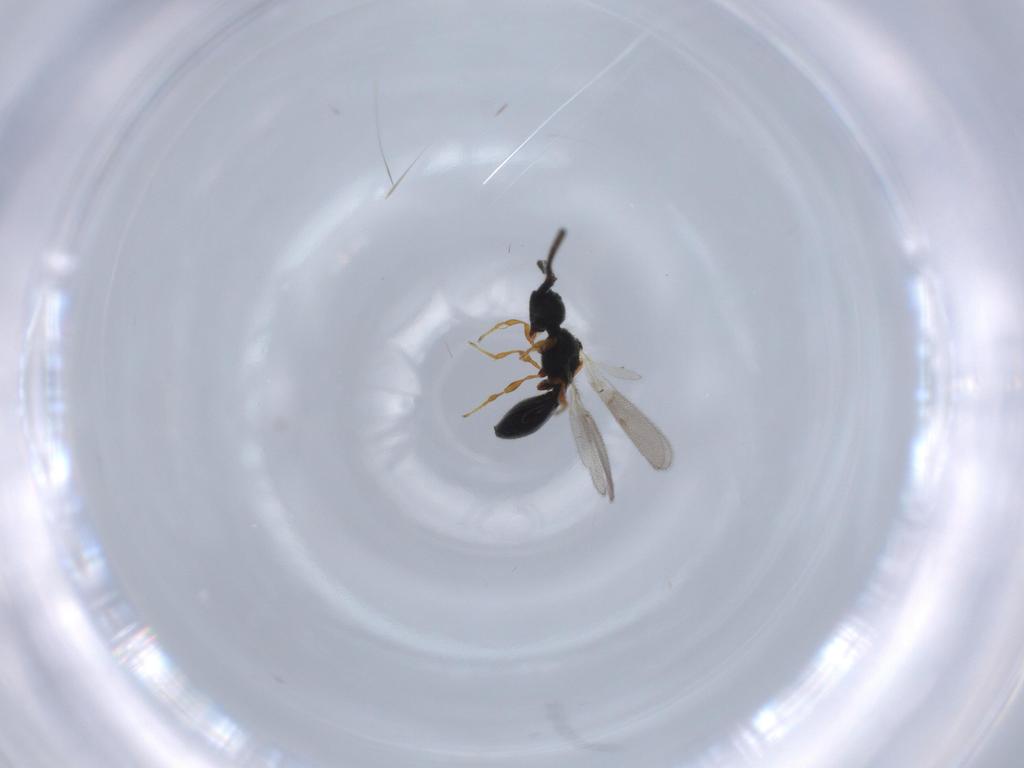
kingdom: Animalia
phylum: Arthropoda
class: Insecta
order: Hymenoptera
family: Diapriidae
